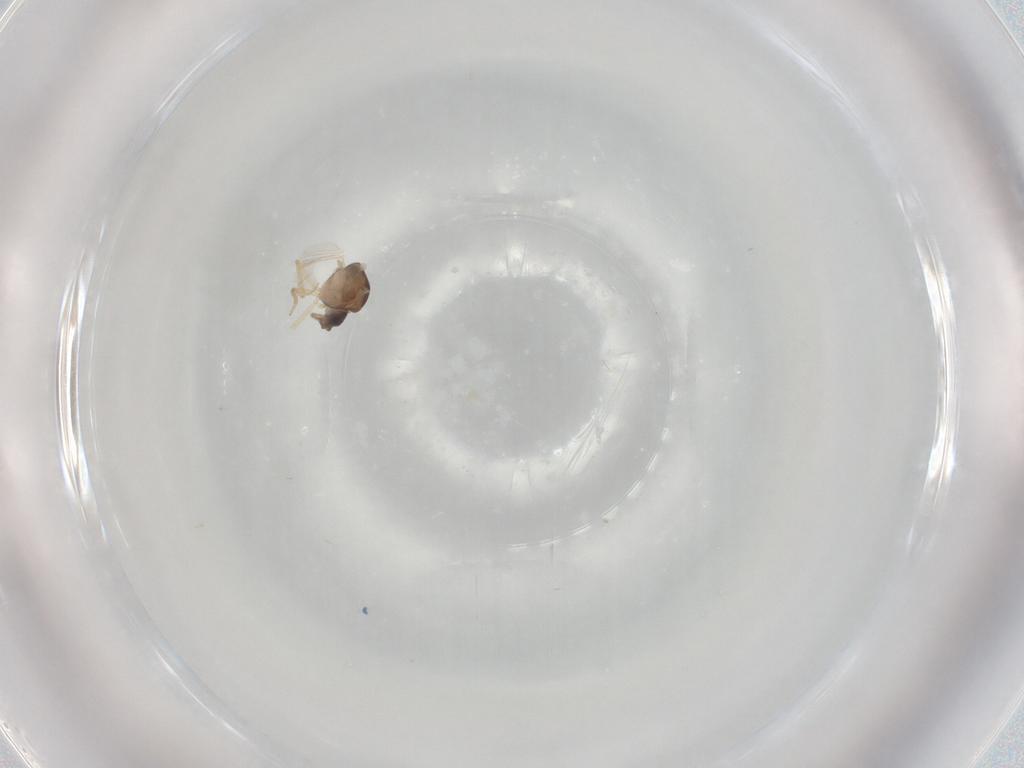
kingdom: Animalia
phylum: Arthropoda
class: Insecta
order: Diptera
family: Ceratopogonidae
